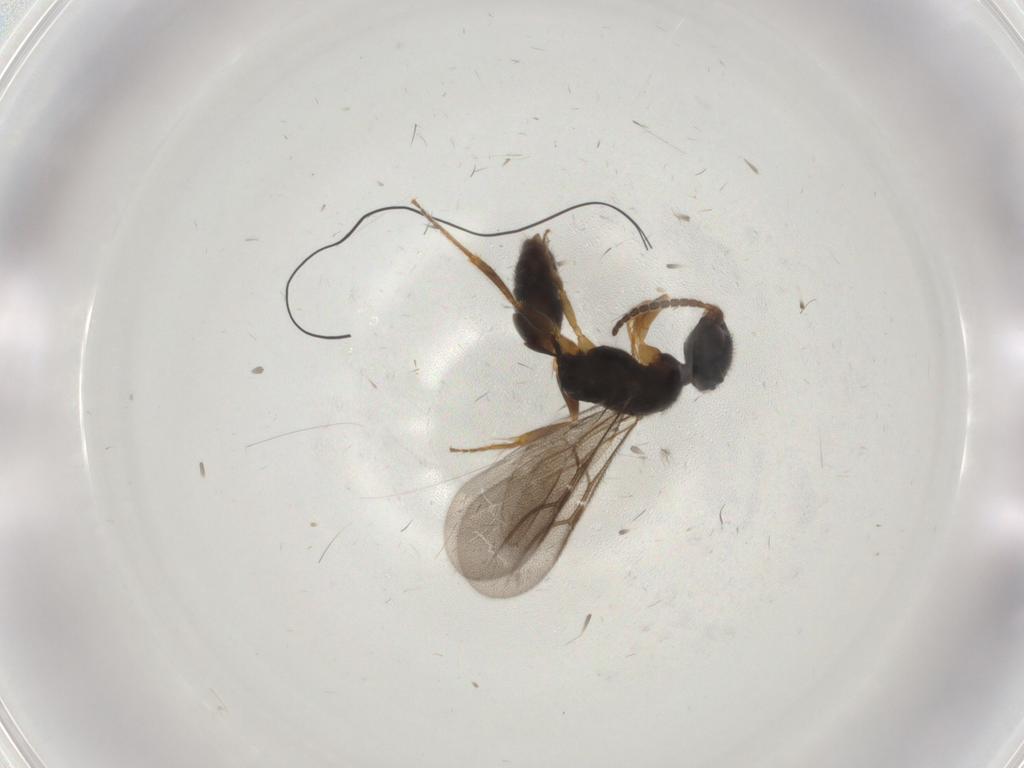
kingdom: Animalia
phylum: Arthropoda
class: Insecta
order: Hymenoptera
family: Bethylidae
